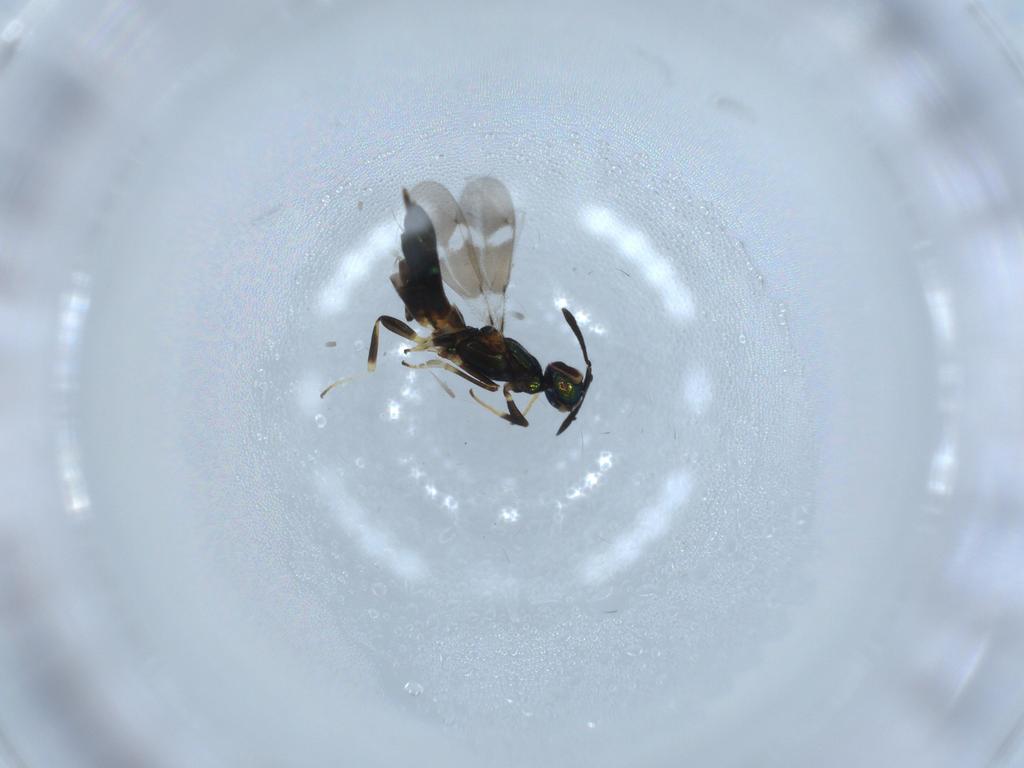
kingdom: Animalia
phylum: Arthropoda
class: Insecta
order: Hymenoptera
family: Eupelmidae
